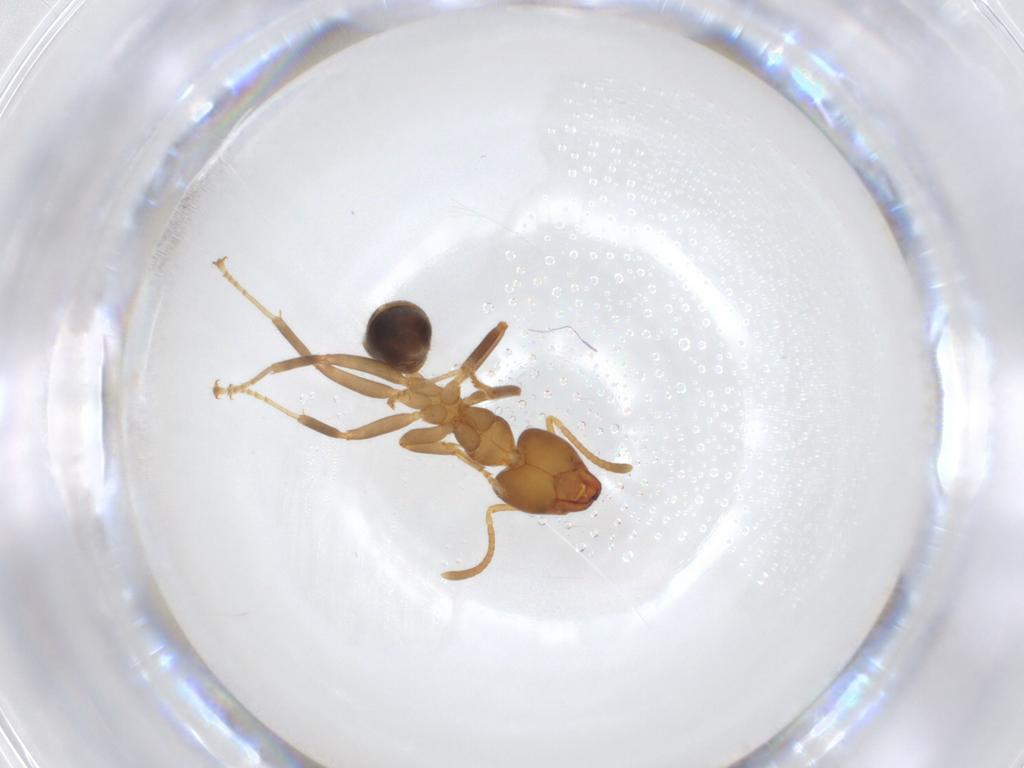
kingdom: Animalia
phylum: Arthropoda
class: Insecta
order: Hymenoptera
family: Formicidae
